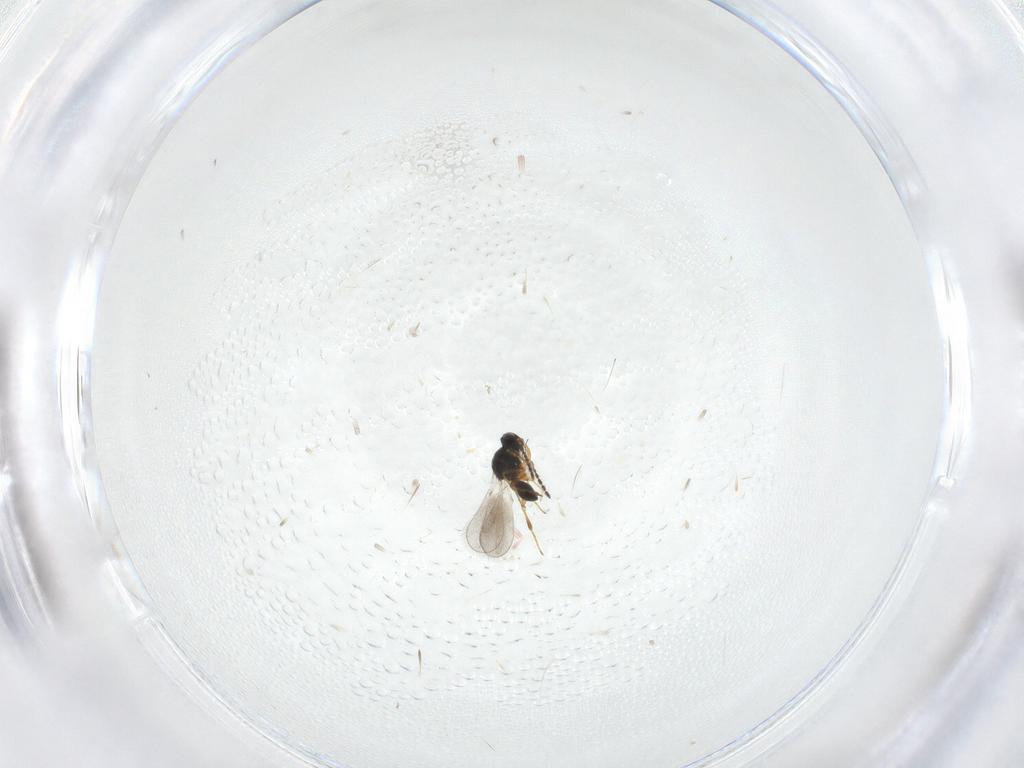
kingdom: Animalia
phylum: Arthropoda
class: Insecta
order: Hymenoptera
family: Platygastridae
